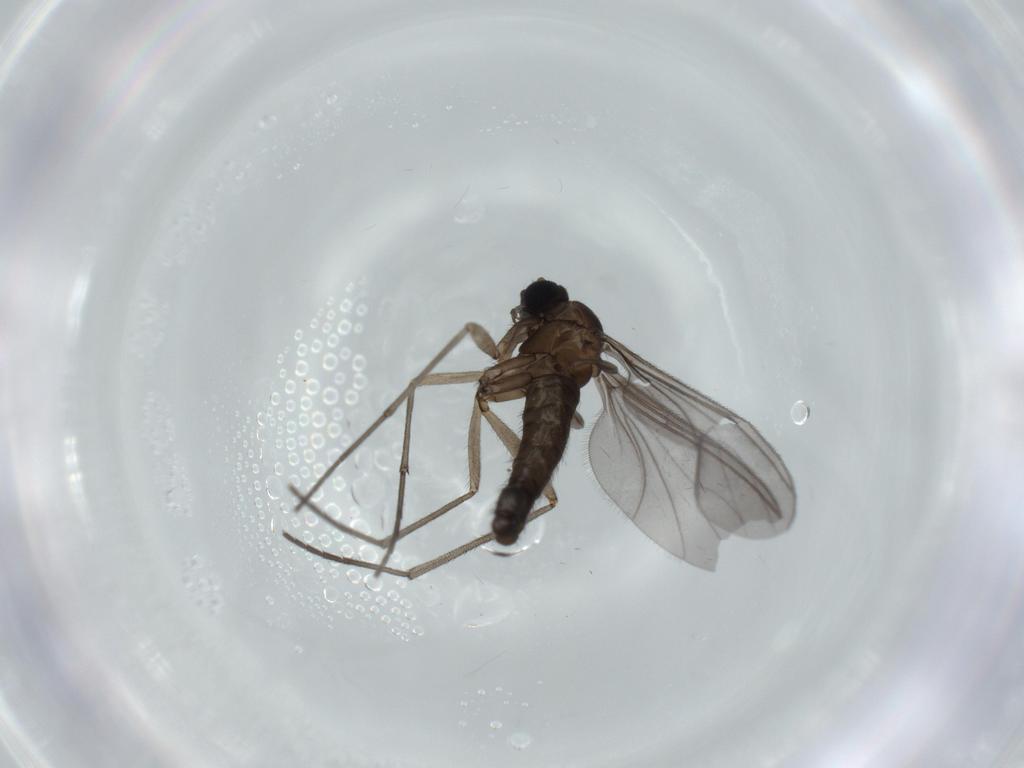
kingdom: Animalia
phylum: Arthropoda
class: Insecta
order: Diptera
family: Sciaridae
